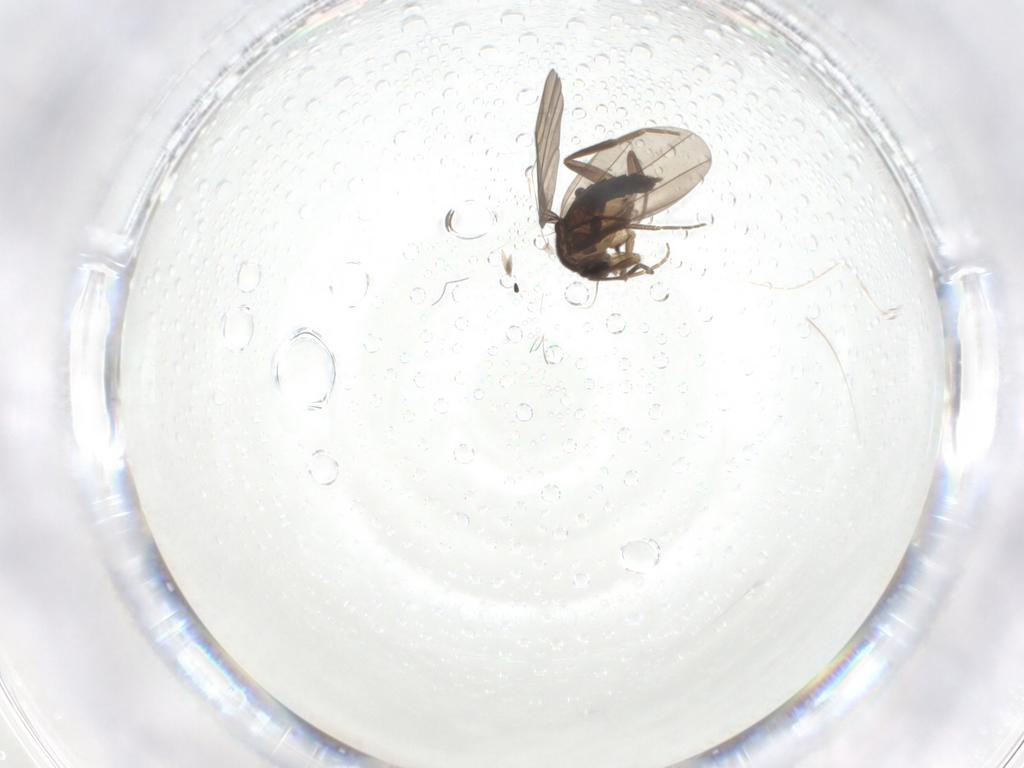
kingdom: Animalia
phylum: Arthropoda
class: Insecta
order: Diptera
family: Phoridae
